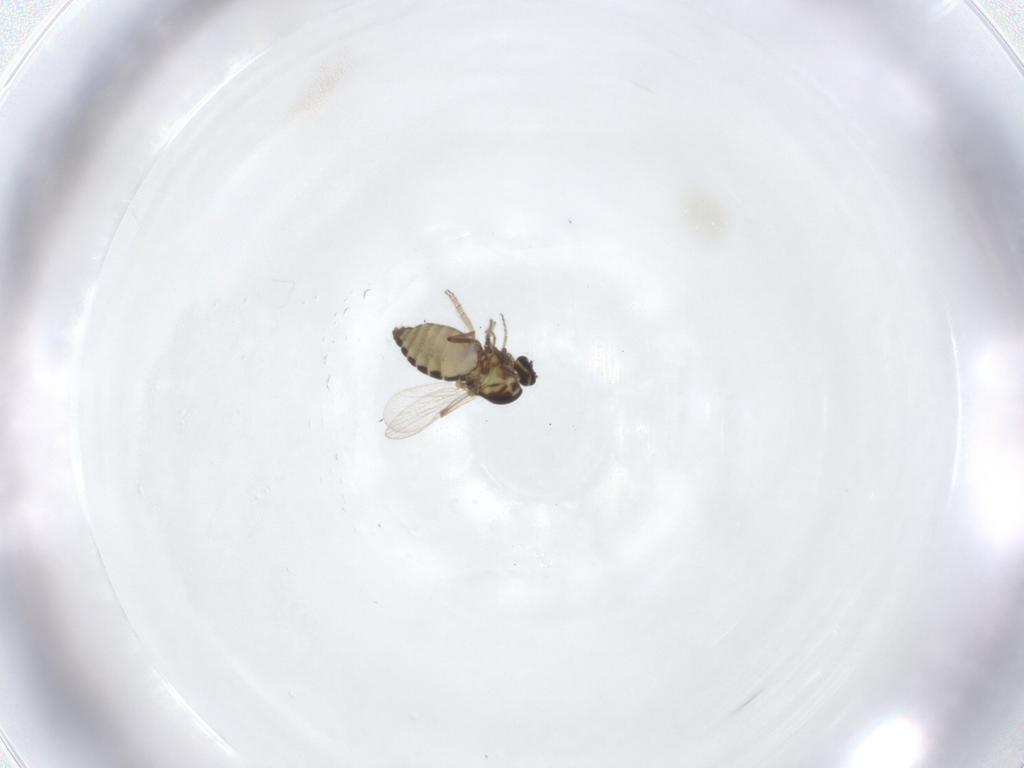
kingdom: Animalia
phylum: Arthropoda
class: Insecta
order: Diptera
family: Ceratopogonidae
